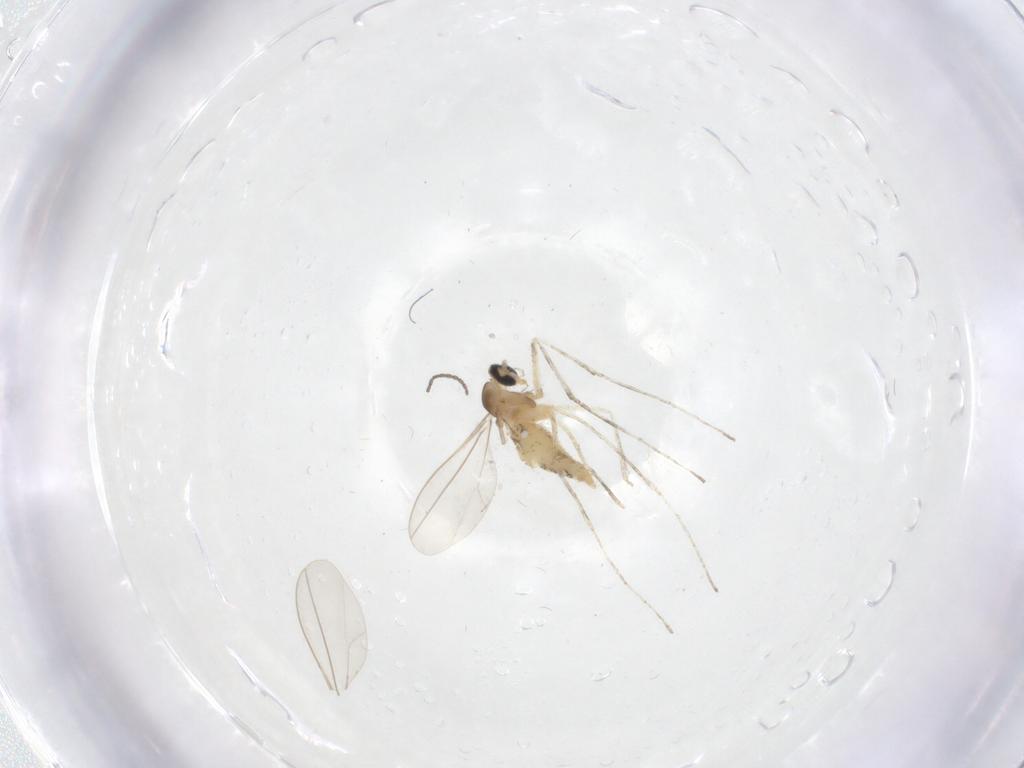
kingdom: Animalia
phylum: Arthropoda
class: Insecta
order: Diptera
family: Cecidomyiidae
